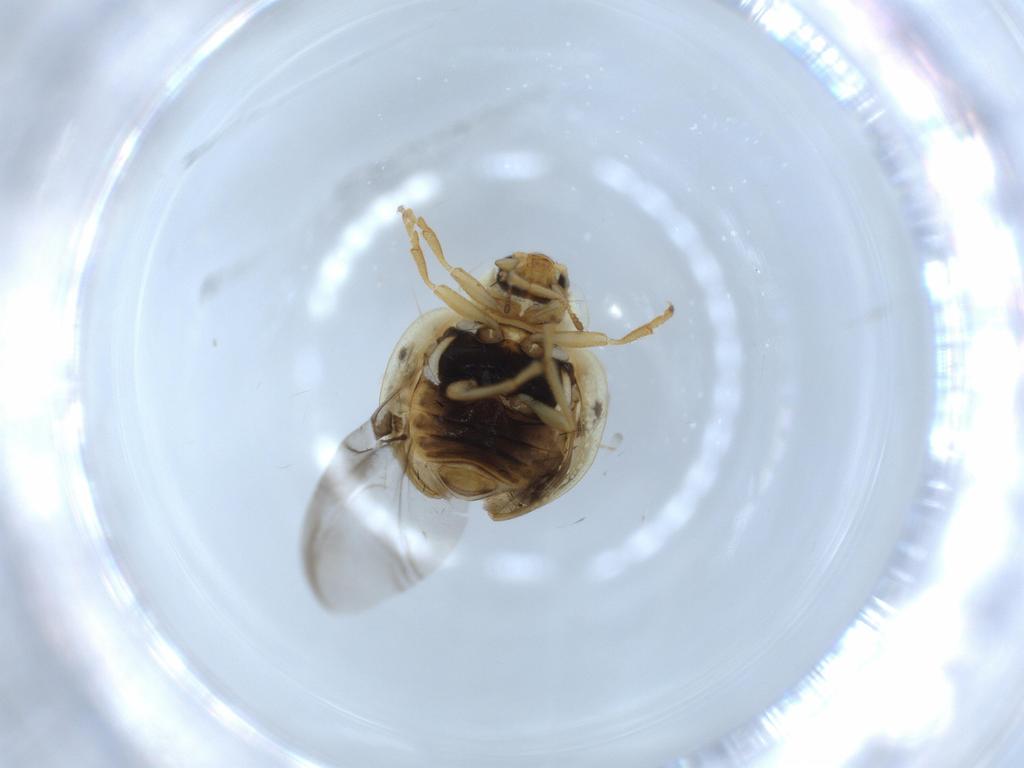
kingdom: Animalia
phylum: Arthropoda
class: Insecta
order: Coleoptera
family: Coccinellidae
